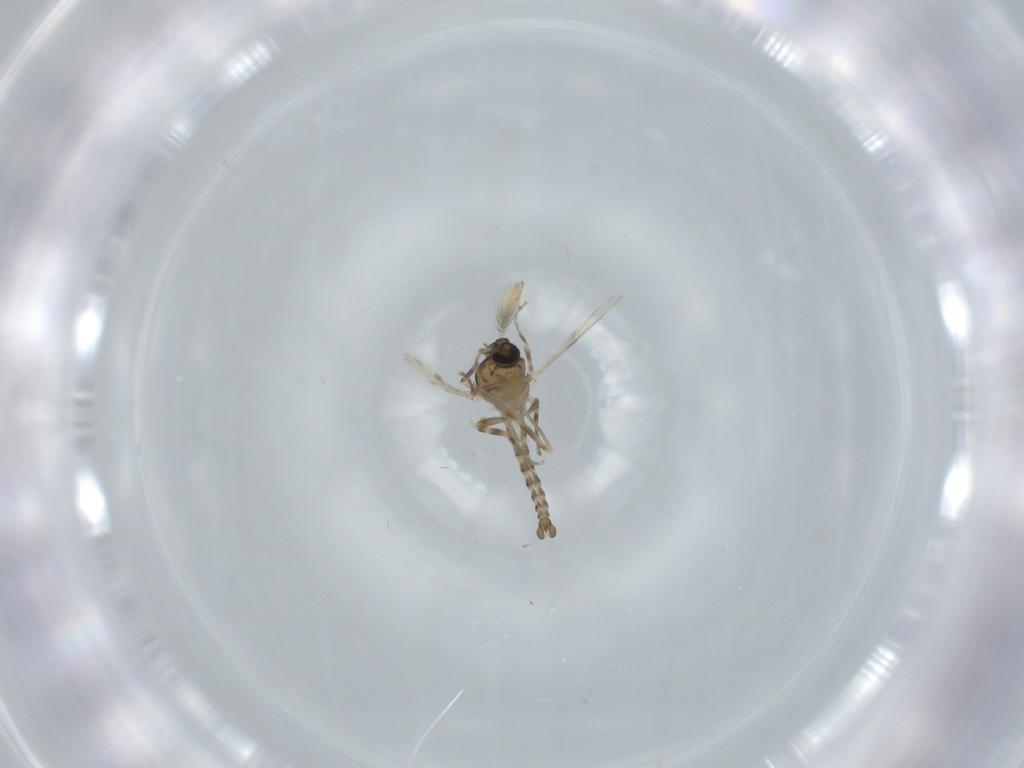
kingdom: Animalia
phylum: Arthropoda
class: Insecta
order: Diptera
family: Ceratopogonidae
